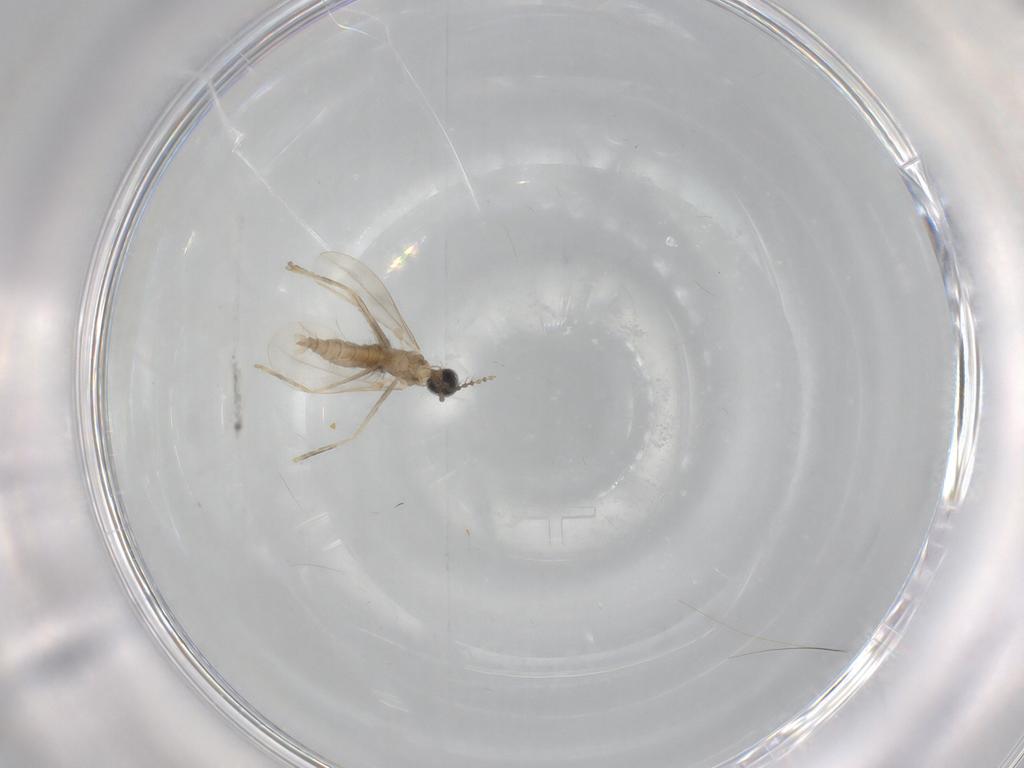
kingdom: Animalia
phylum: Arthropoda
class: Insecta
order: Diptera
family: Cecidomyiidae
